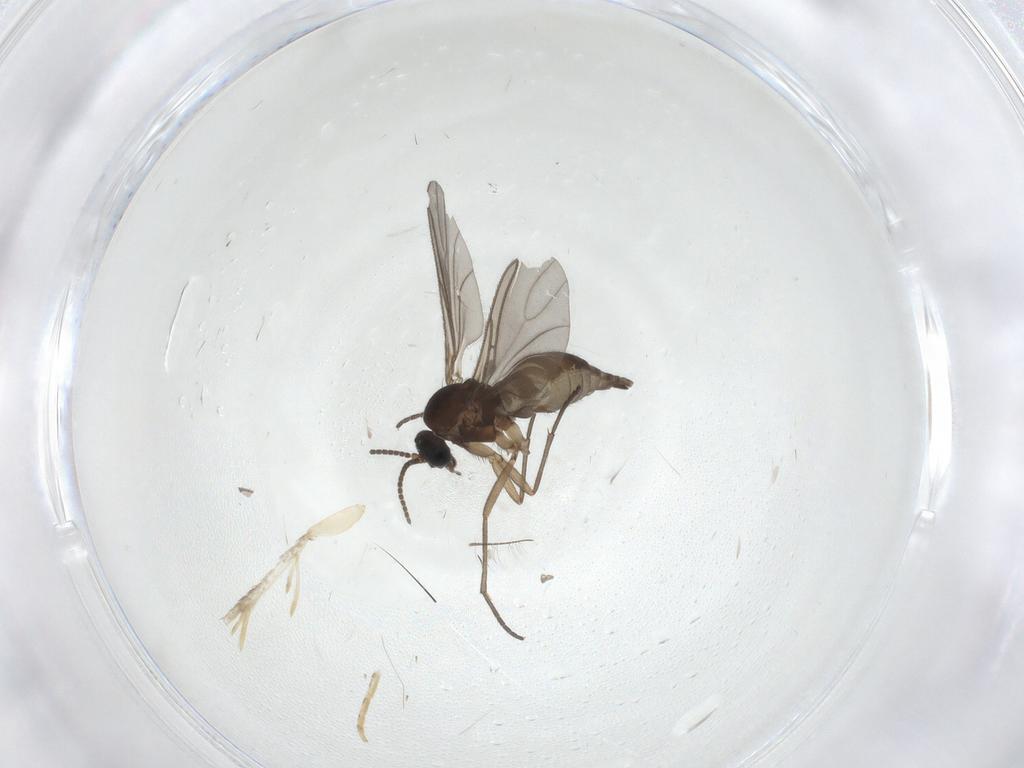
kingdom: Animalia
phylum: Arthropoda
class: Insecta
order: Diptera
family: Sciaridae
